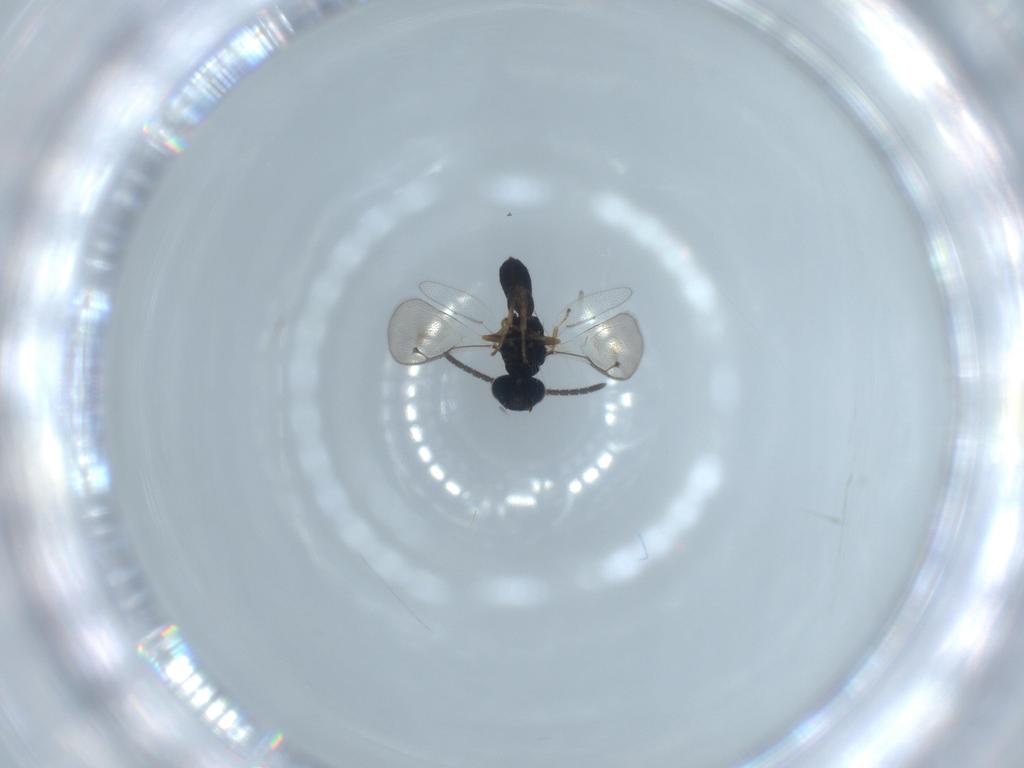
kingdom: Animalia
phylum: Arthropoda
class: Insecta
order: Hymenoptera
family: Pteromalidae
